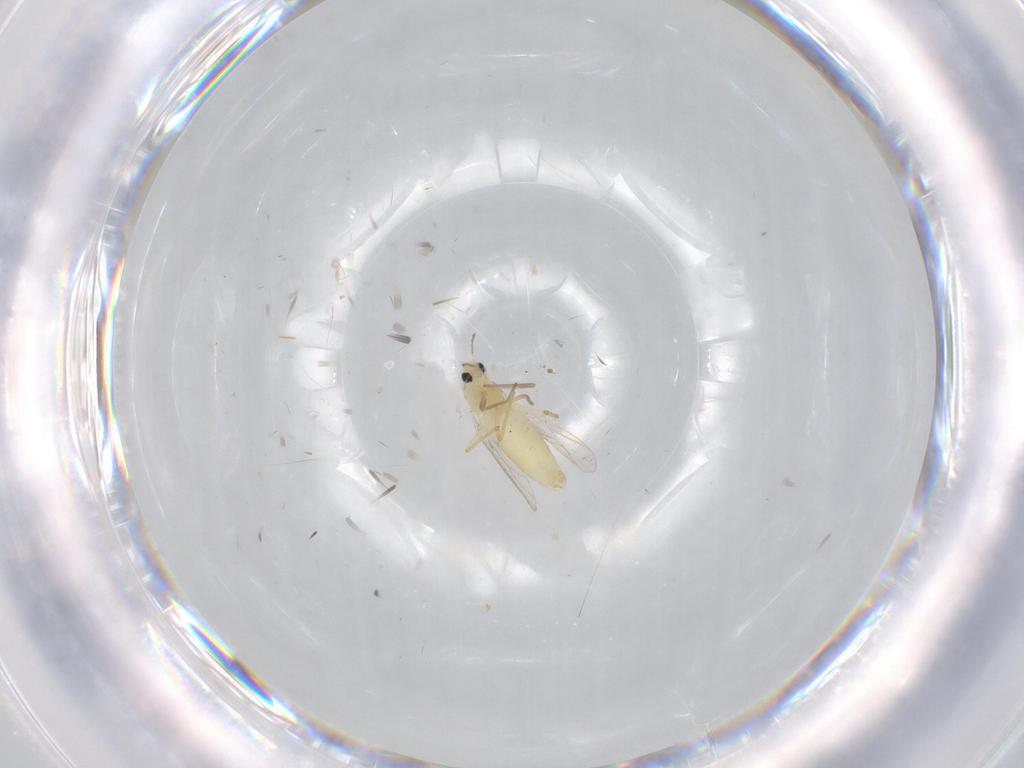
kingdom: Animalia
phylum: Arthropoda
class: Insecta
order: Diptera
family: Chironomidae
